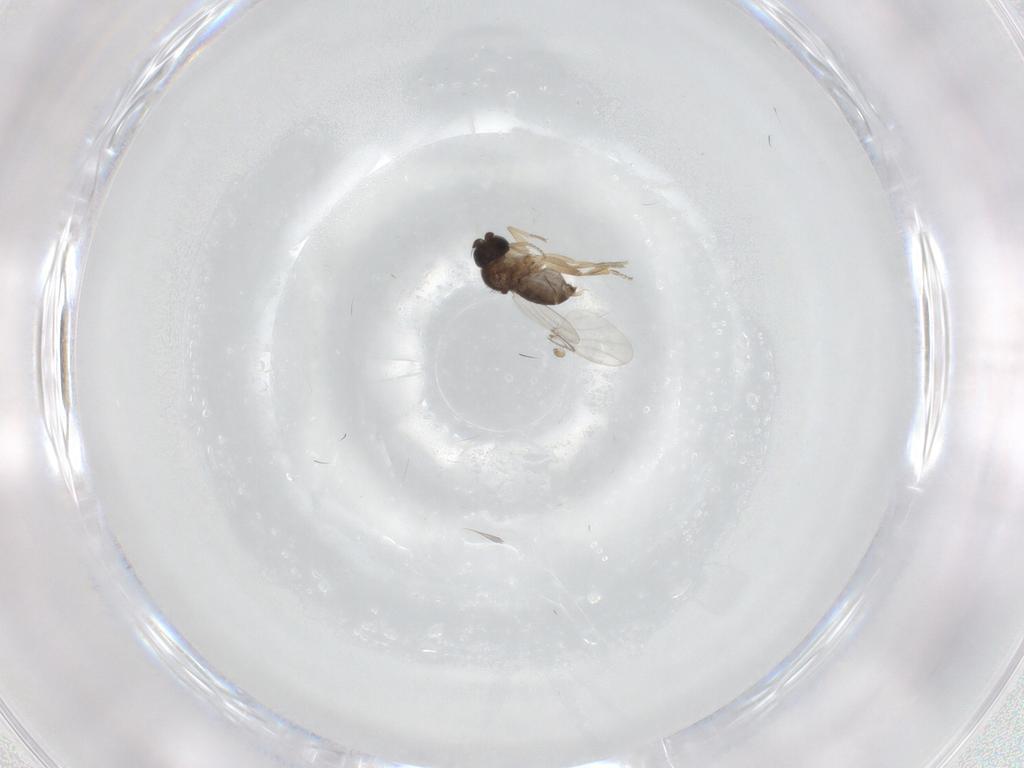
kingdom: Animalia
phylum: Arthropoda
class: Insecta
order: Diptera
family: Phoridae
